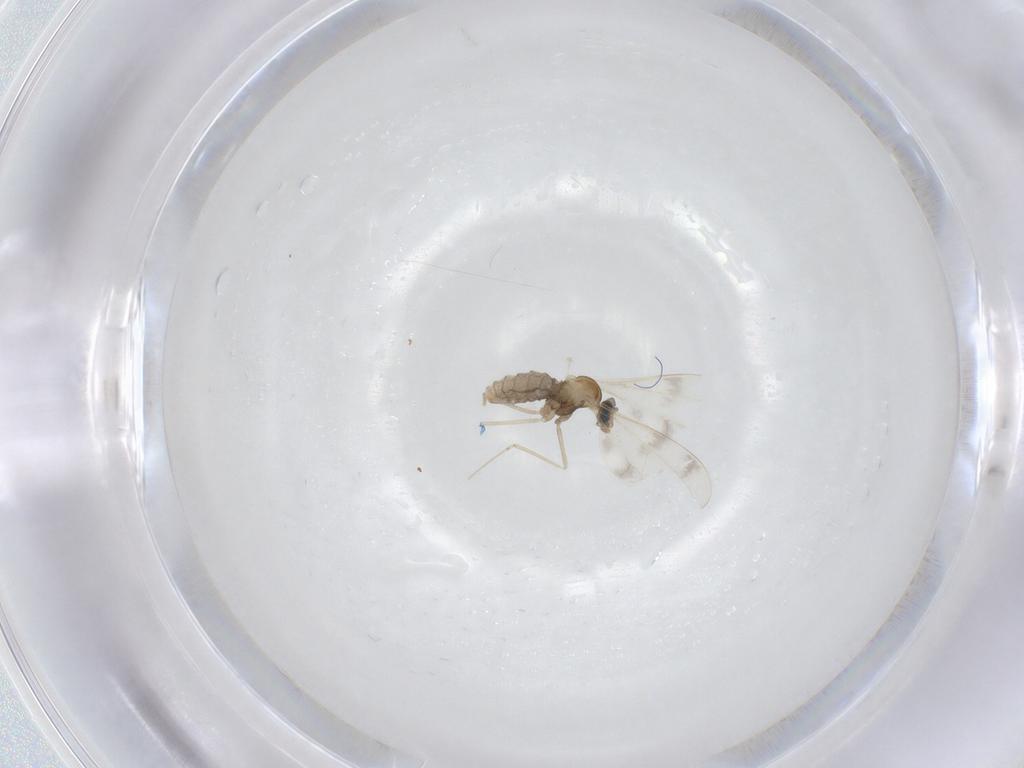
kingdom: Animalia
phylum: Arthropoda
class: Insecta
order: Diptera
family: Cecidomyiidae
